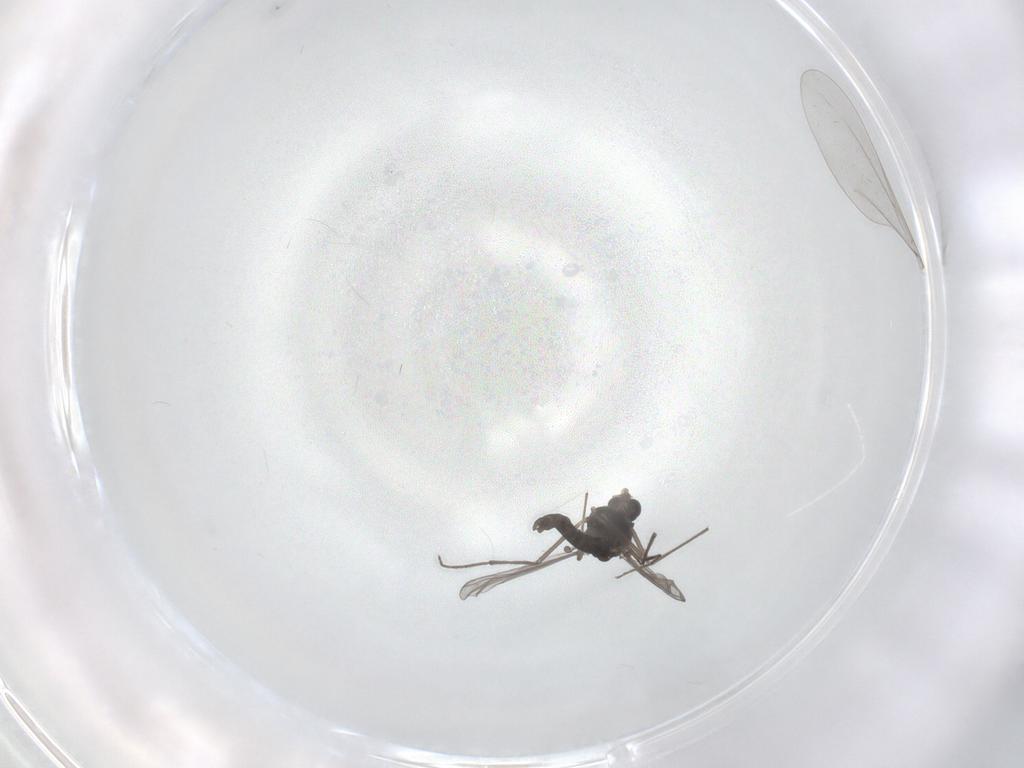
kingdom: Animalia
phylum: Arthropoda
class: Insecta
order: Diptera
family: Cecidomyiidae
